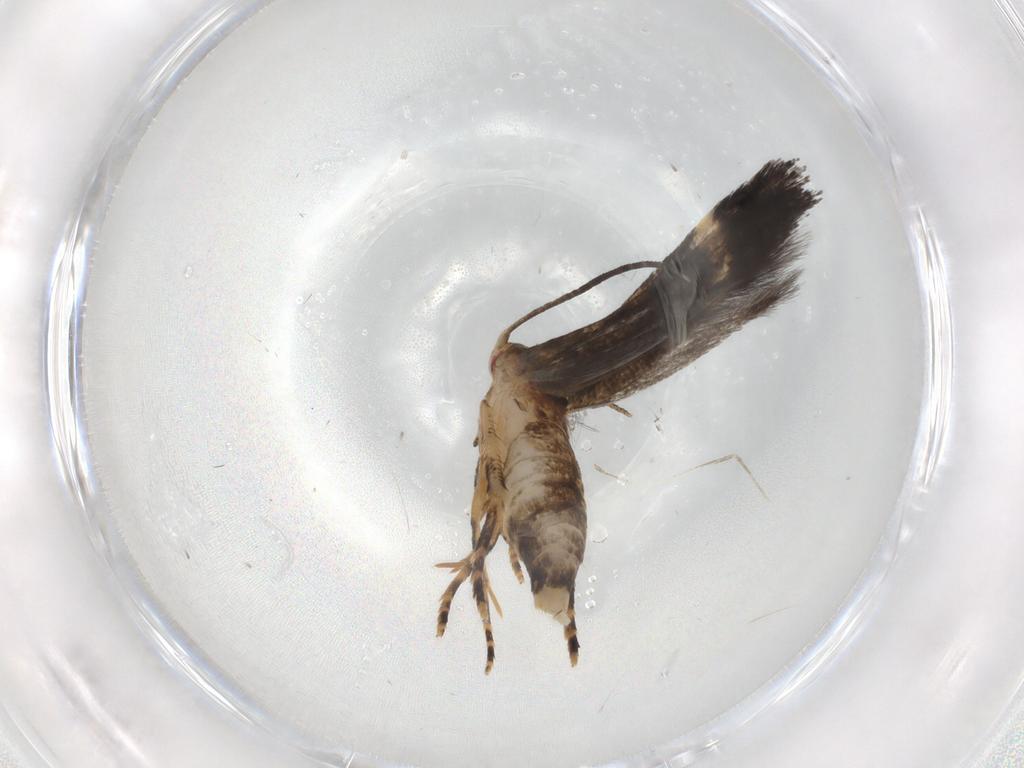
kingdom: Animalia
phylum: Arthropoda
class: Insecta
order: Lepidoptera
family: Momphidae
